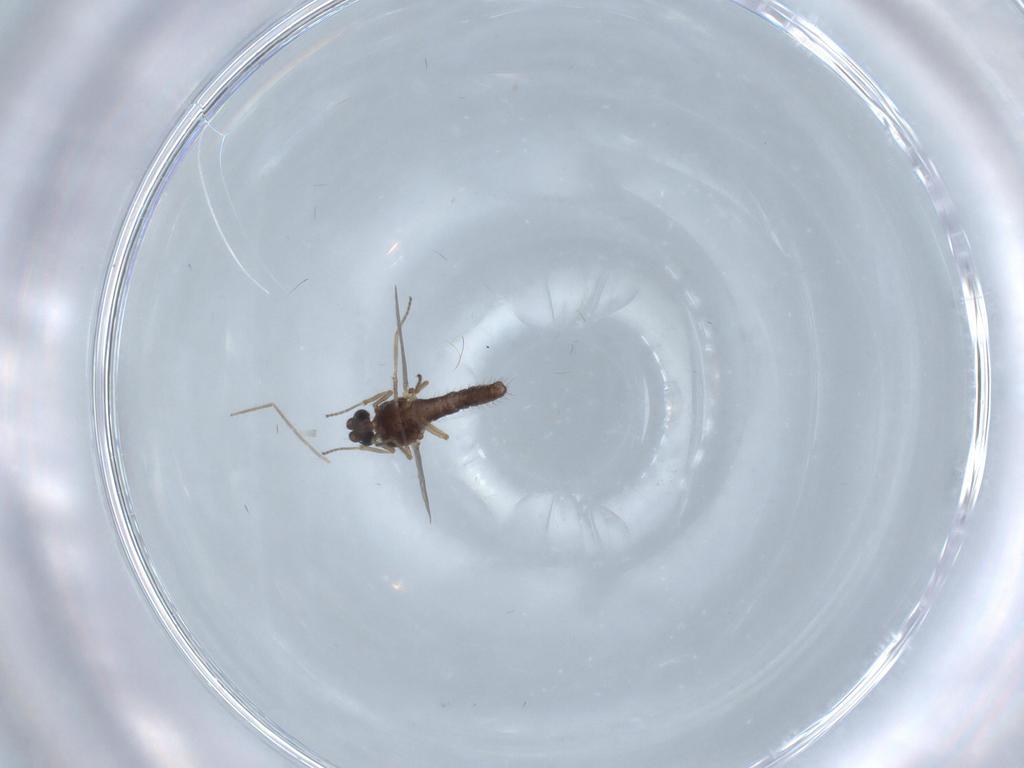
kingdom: Animalia
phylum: Arthropoda
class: Insecta
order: Diptera
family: Ceratopogonidae
